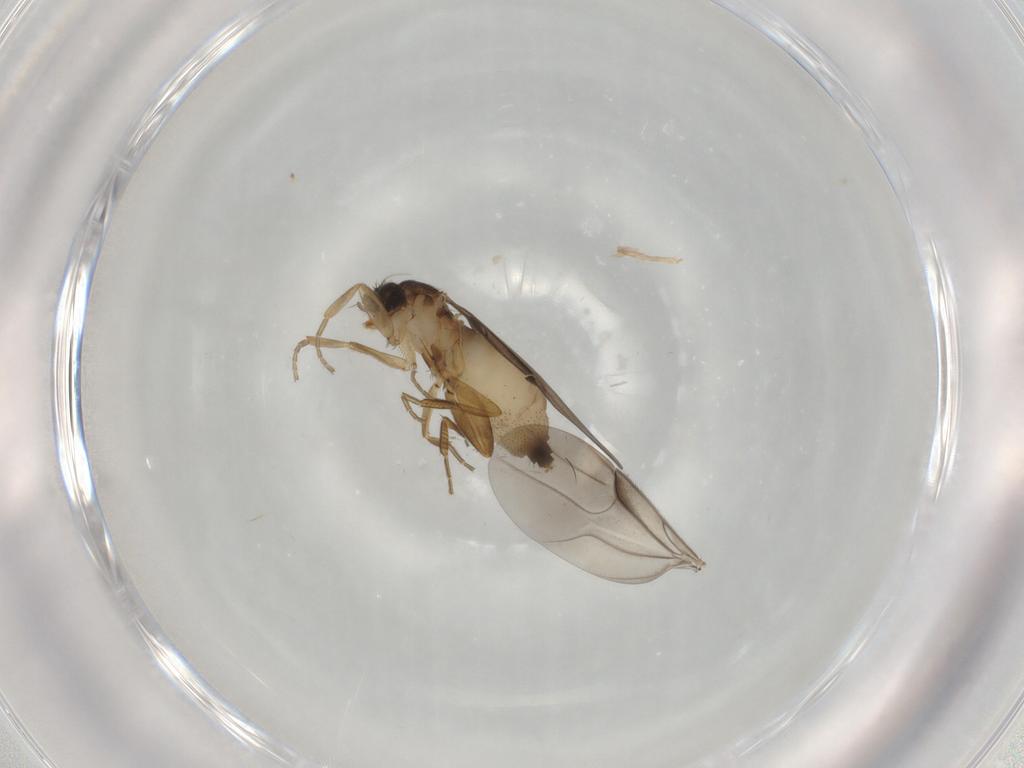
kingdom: Animalia
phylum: Arthropoda
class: Insecta
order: Diptera
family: Phoridae
